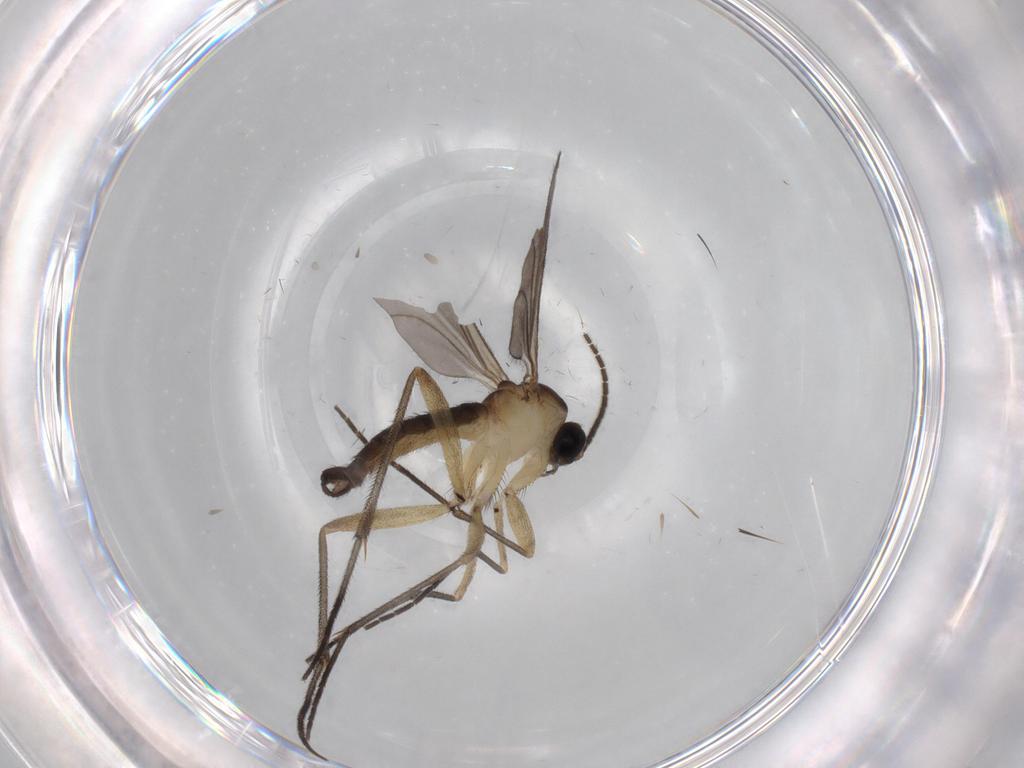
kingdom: Animalia
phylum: Arthropoda
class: Insecta
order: Diptera
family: Sciaridae
